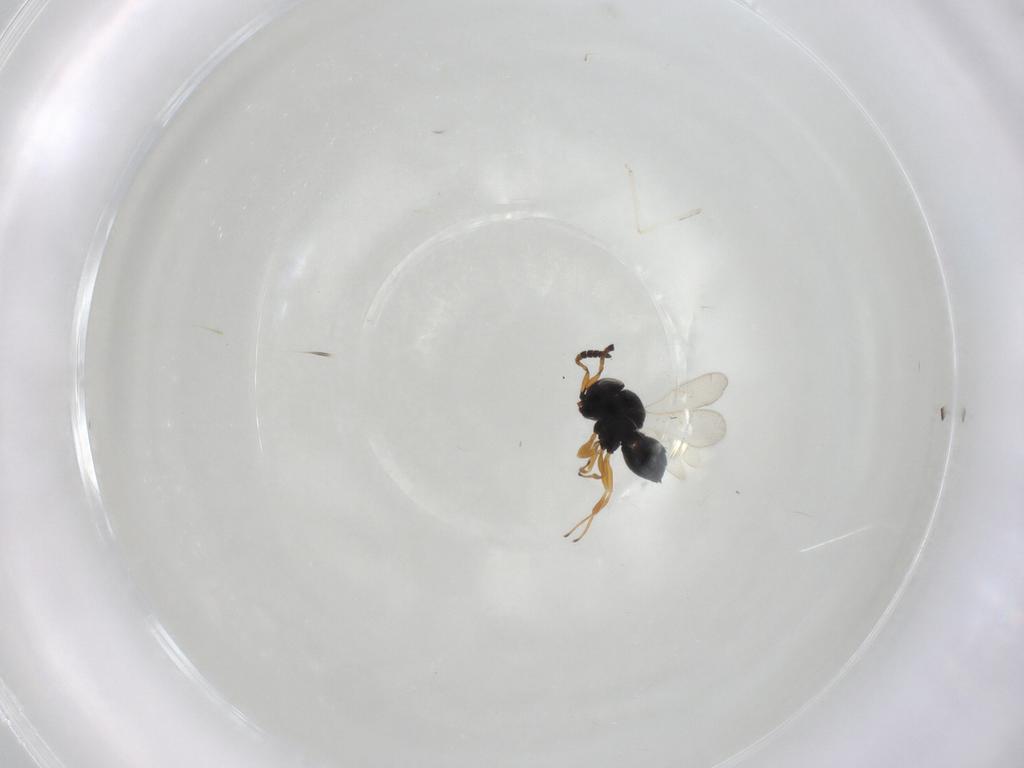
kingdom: Animalia
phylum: Arthropoda
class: Insecta
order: Hymenoptera
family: Scelionidae
